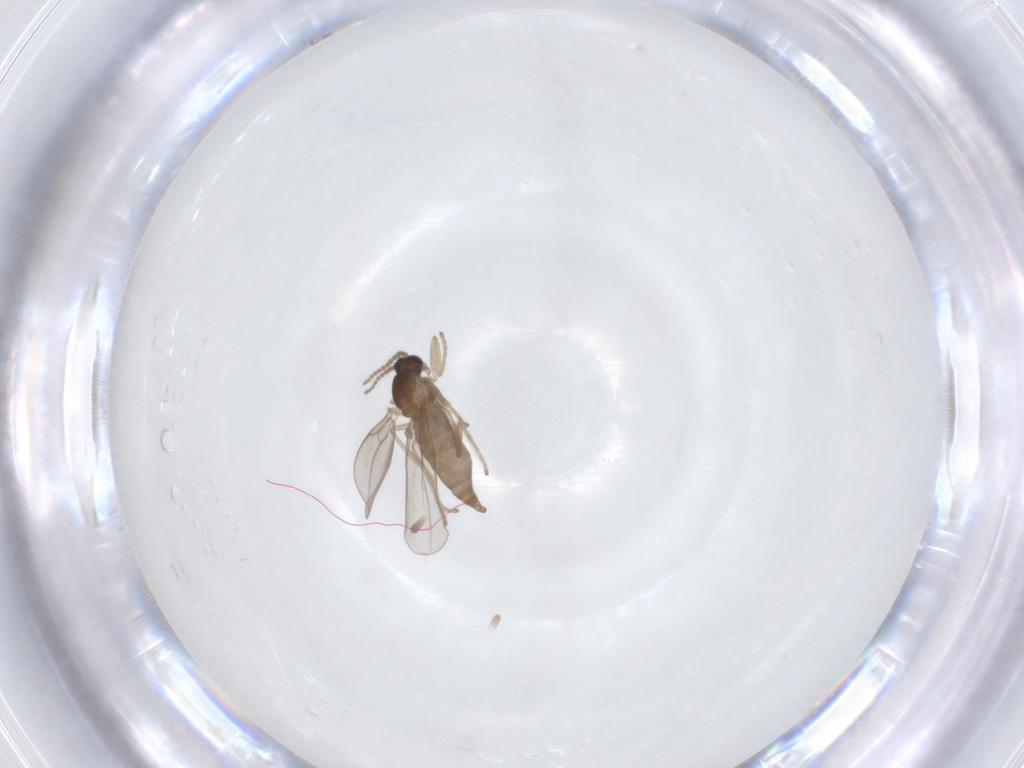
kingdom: Animalia
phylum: Arthropoda
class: Insecta
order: Diptera
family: Cecidomyiidae
